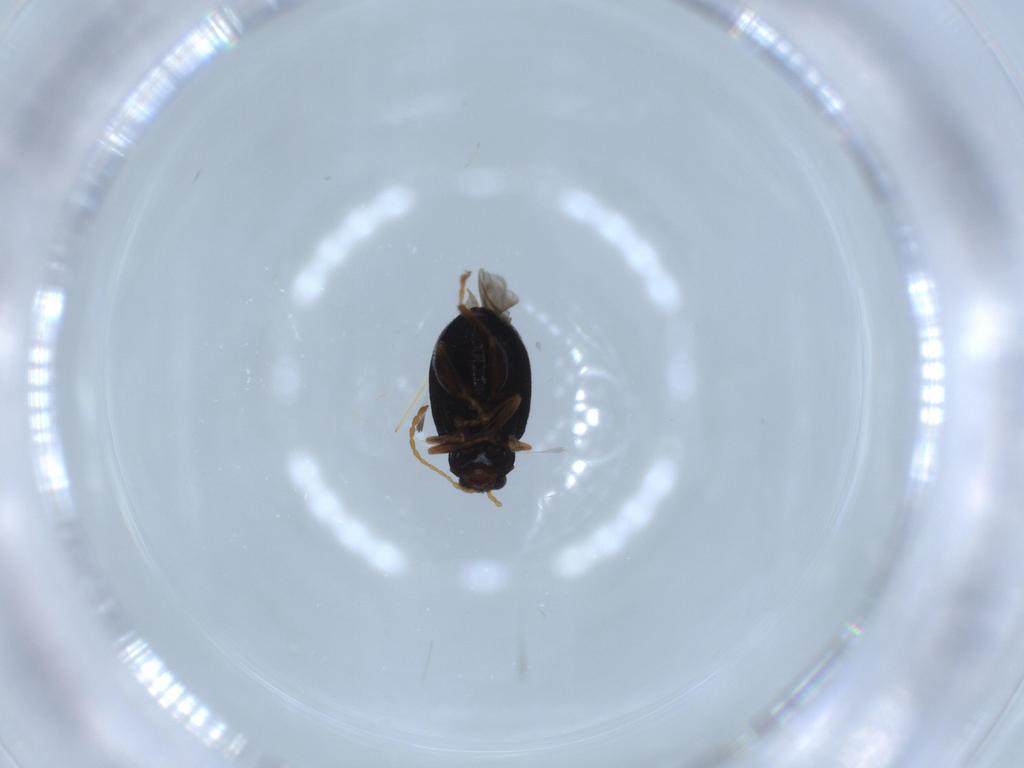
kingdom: Animalia
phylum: Arthropoda
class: Insecta
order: Coleoptera
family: Chrysomelidae
